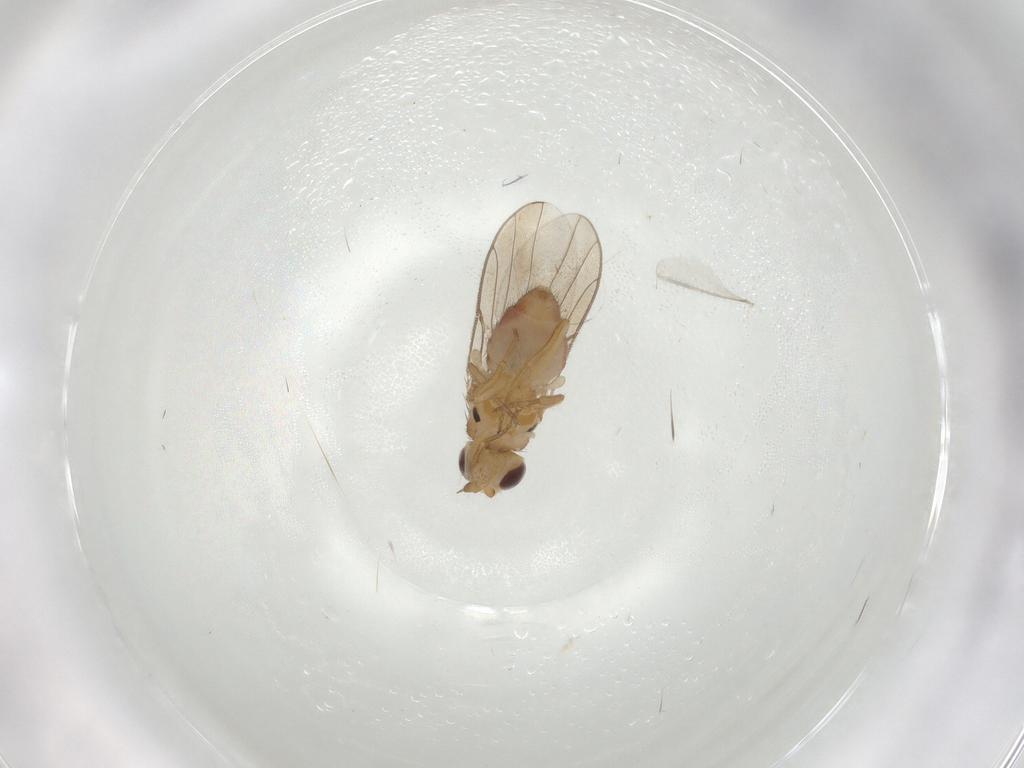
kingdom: Animalia
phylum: Arthropoda
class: Insecta
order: Diptera
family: Chloropidae
